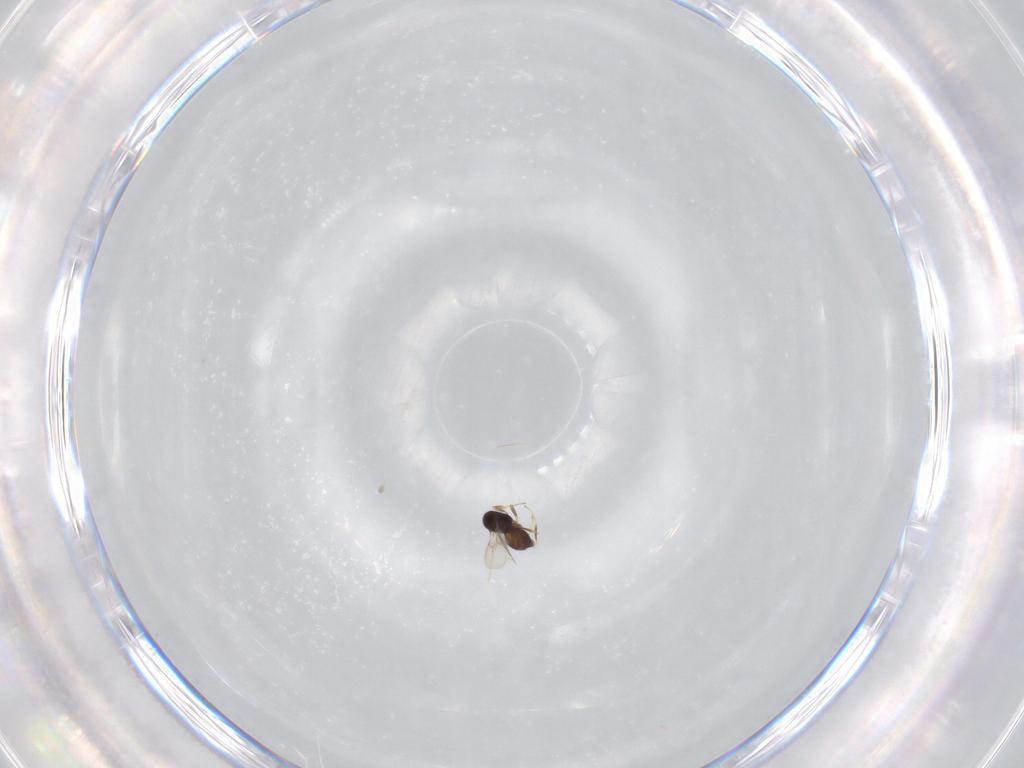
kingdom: Animalia
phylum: Arthropoda
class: Insecta
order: Hymenoptera
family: Scelionidae
